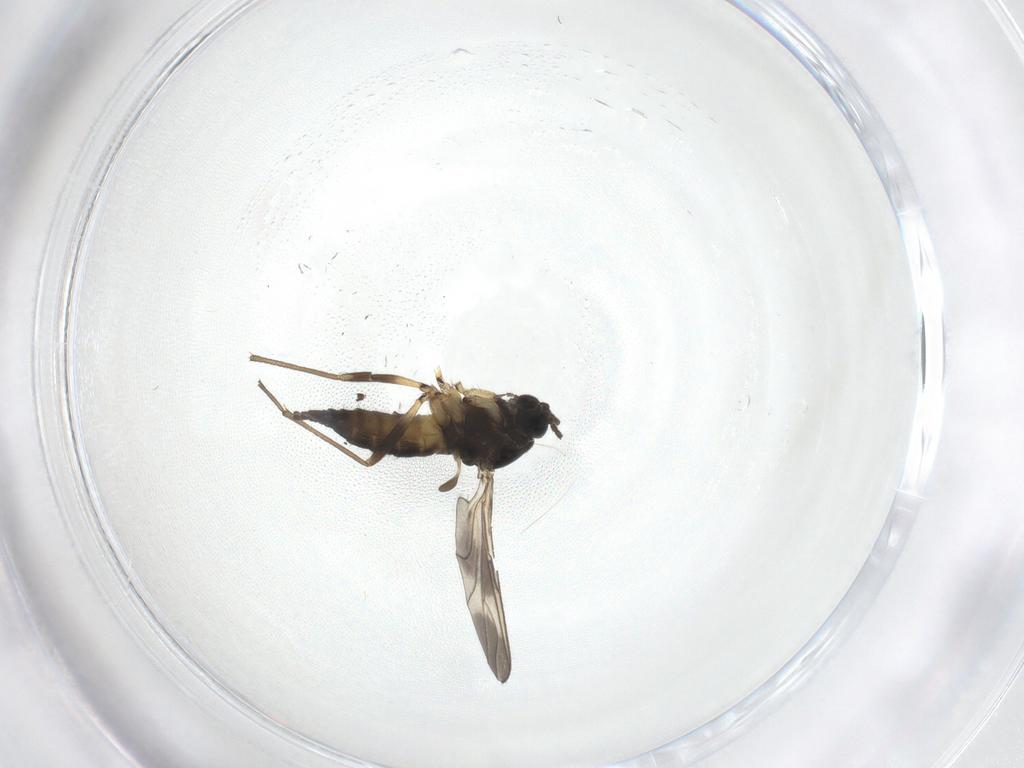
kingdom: Animalia
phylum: Arthropoda
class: Insecta
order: Diptera
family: Sciaridae
